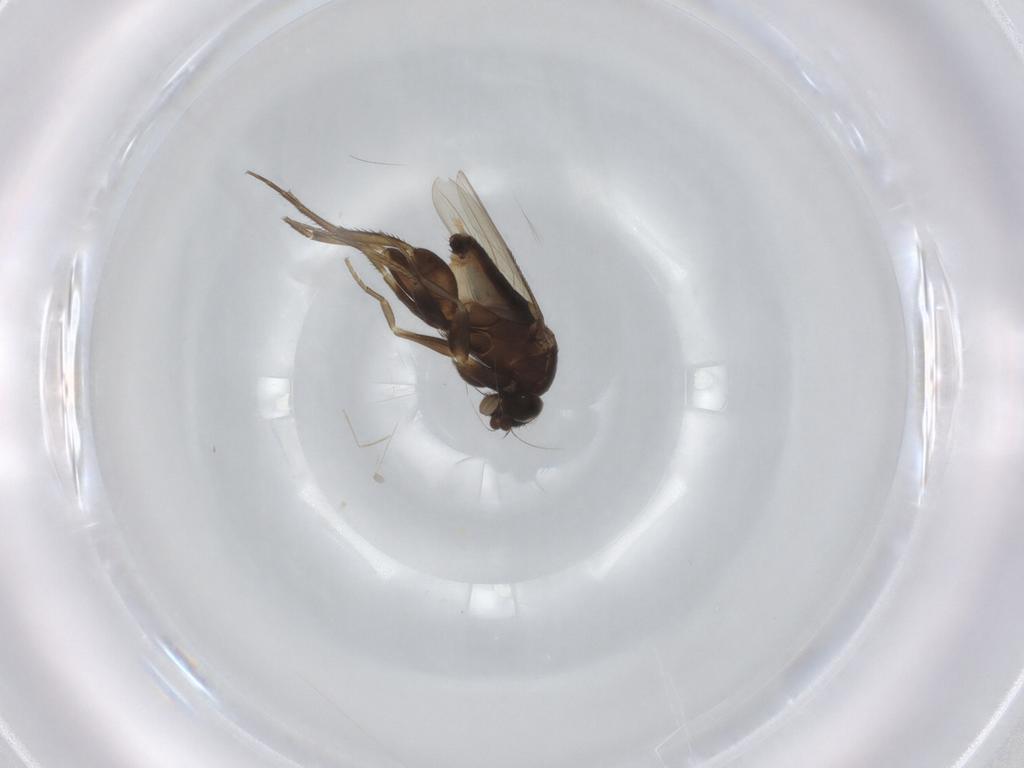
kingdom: Animalia
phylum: Arthropoda
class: Insecta
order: Diptera
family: Phoridae
